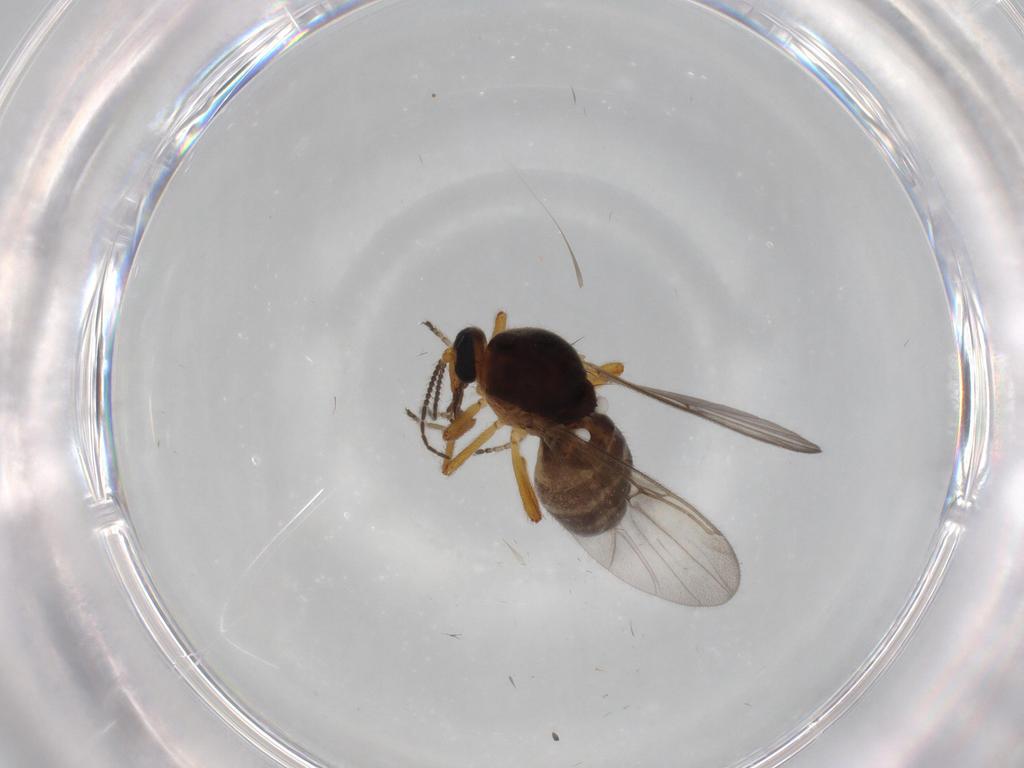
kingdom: Animalia
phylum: Arthropoda
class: Insecta
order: Diptera
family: Ceratopogonidae
